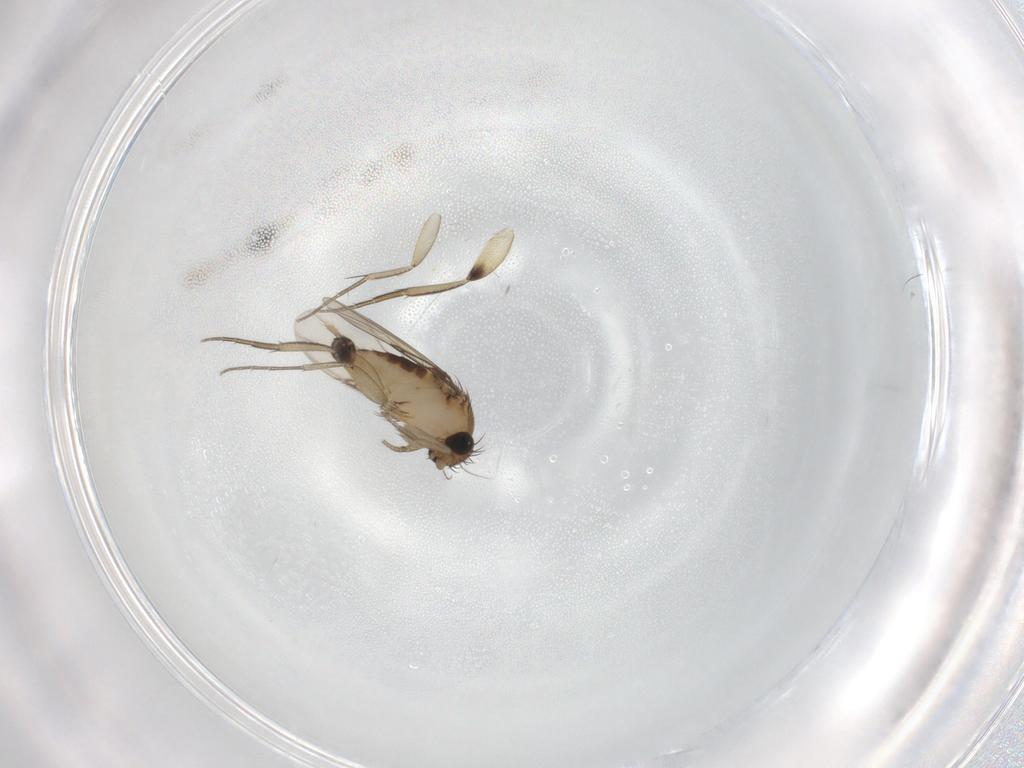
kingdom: Animalia
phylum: Arthropoda
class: Insecta
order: Diptera
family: Phoridae
